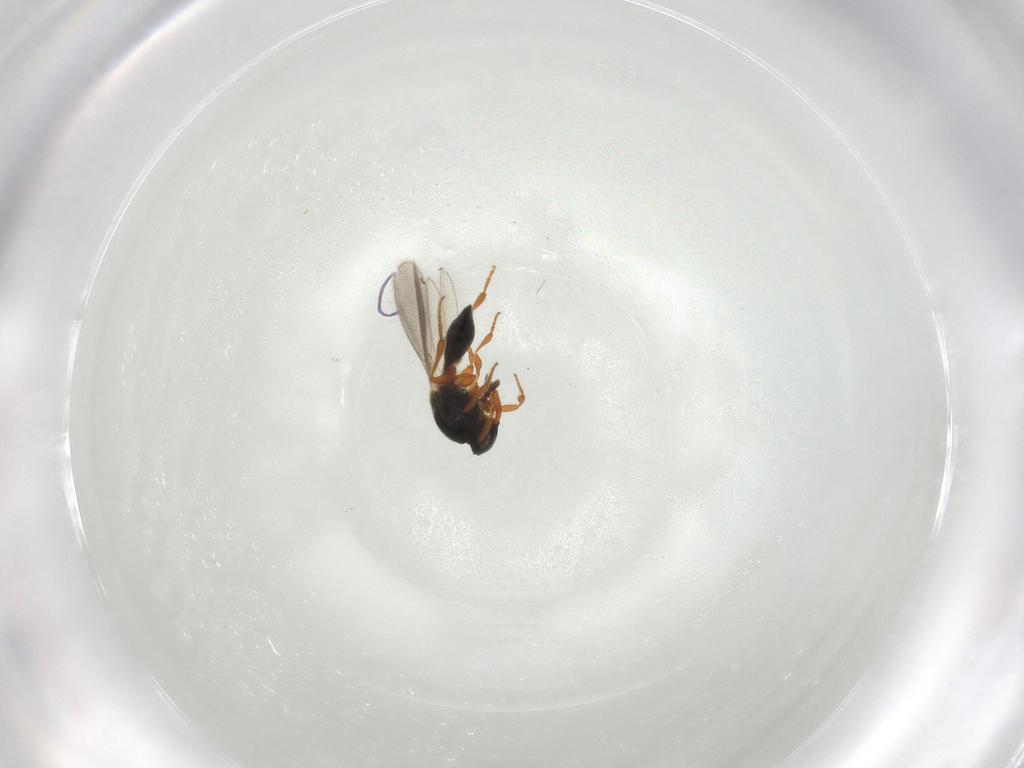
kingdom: Animalia
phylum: Arthropoda
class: Insecta
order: Hymenoptera
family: Platygastridae
